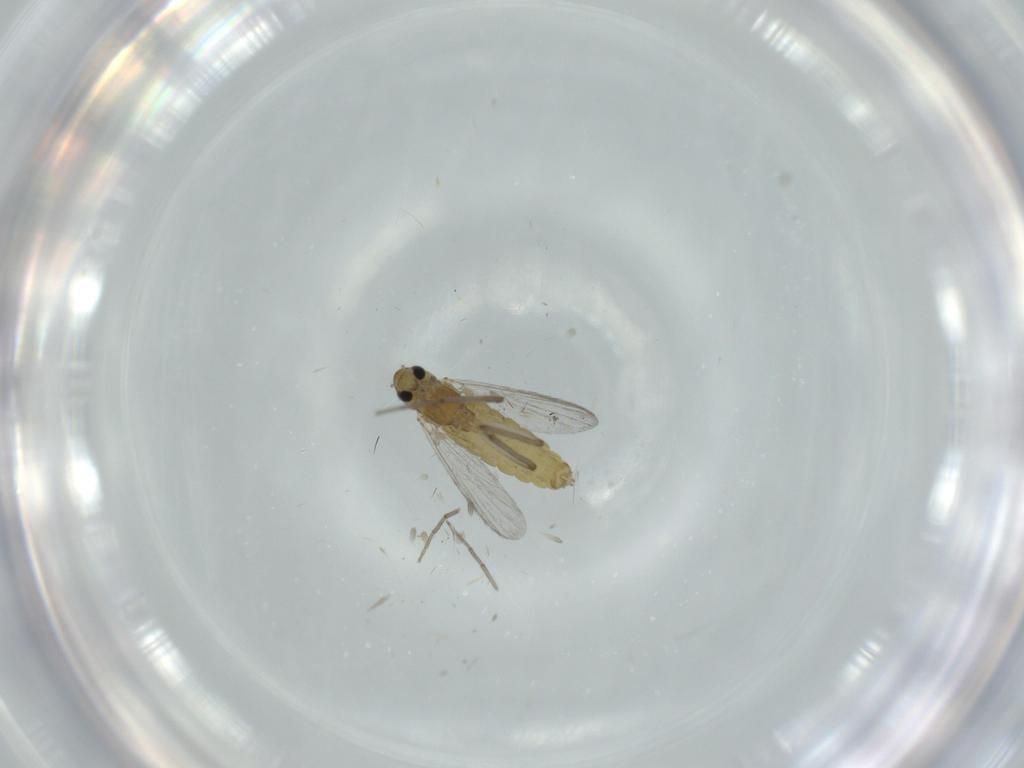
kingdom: Animalia
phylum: Arthropoda
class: Insecta
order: Diptera
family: Chironomidae
